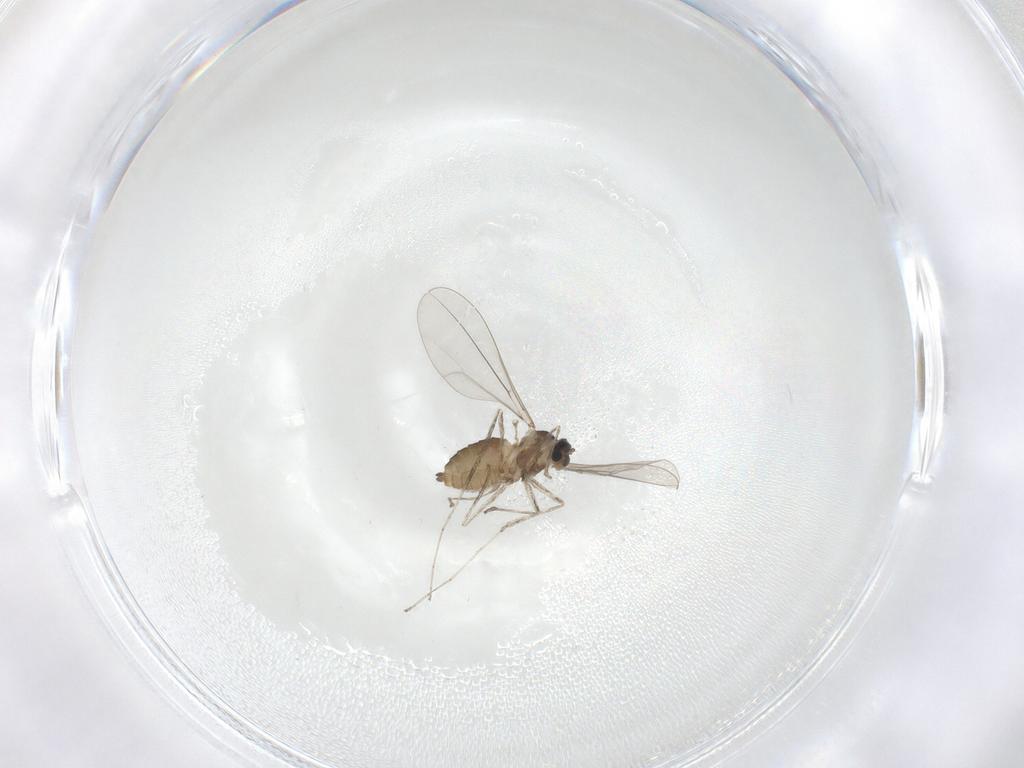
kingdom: Animalia
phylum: Arthropoda
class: Insecta
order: Diptera
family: Cecidomyiidae
